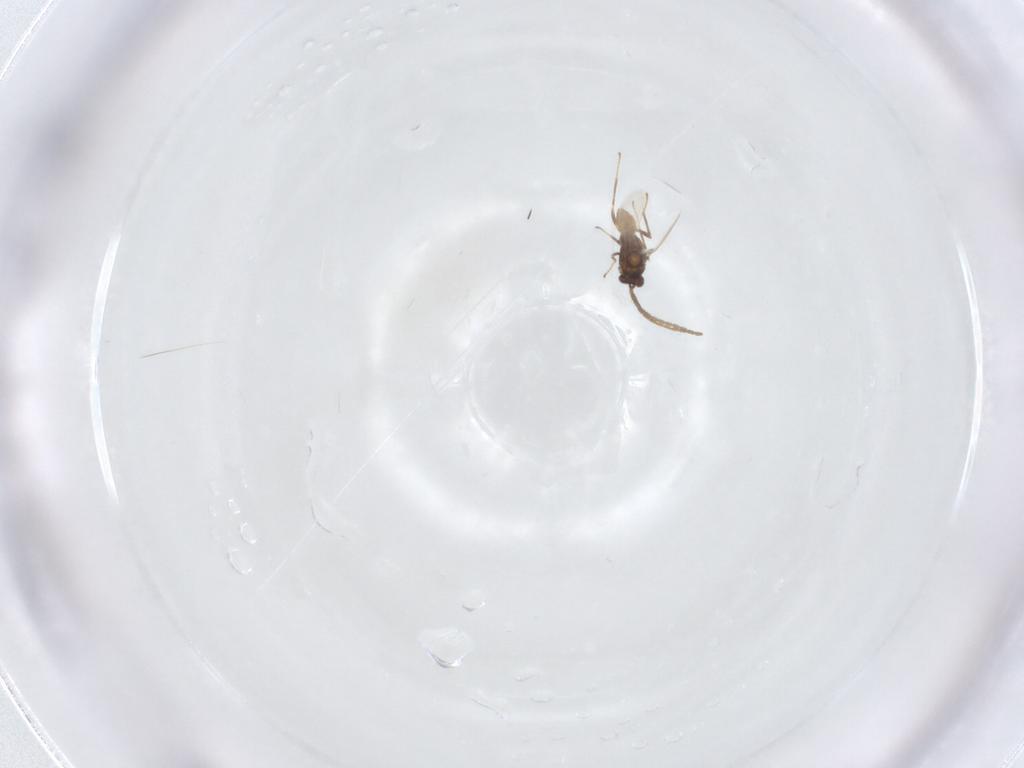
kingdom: Animalia
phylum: Arthropoda
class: Insecta
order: Hymenoptera
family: Mymaridae
